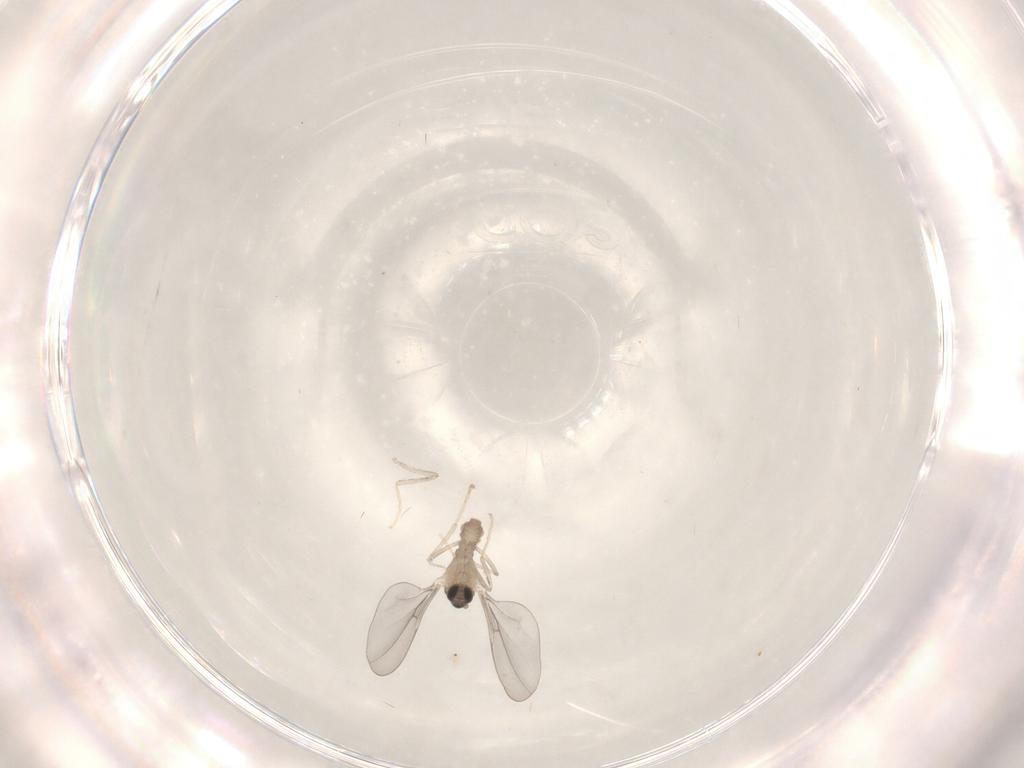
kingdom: Animalia
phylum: Arthropoda
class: Insecta
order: Diptera
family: Cecidomyiidae
